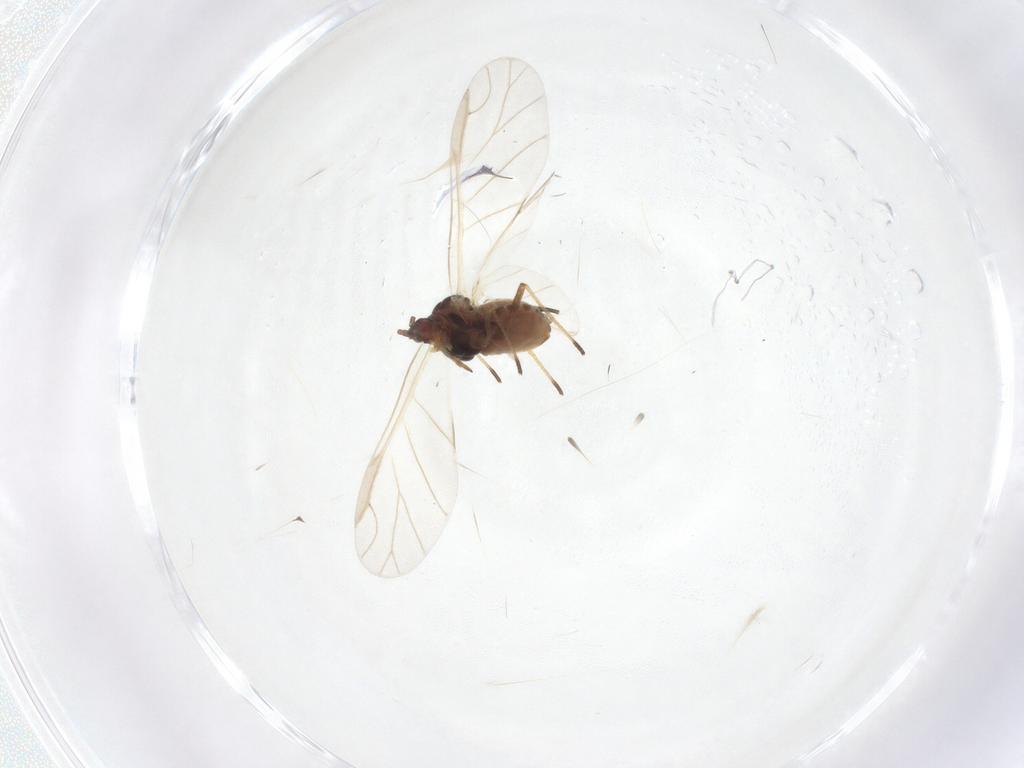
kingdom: Animalia
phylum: Arthropoda
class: Insecta
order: Hemiptera
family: Aphididae
